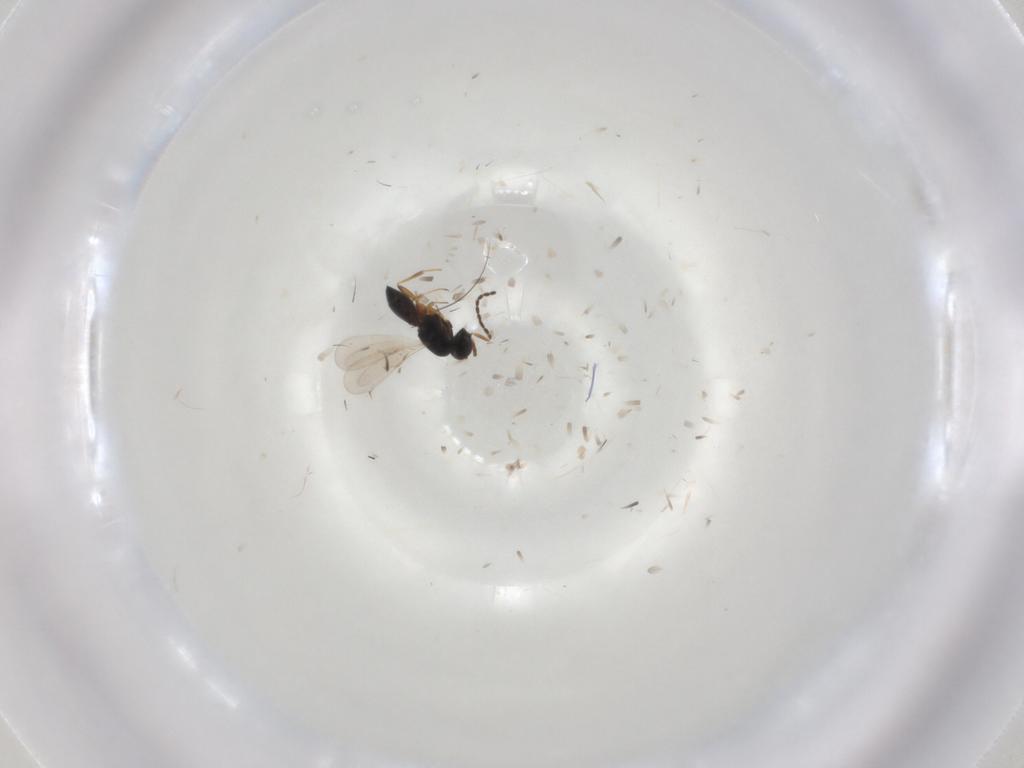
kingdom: Animalia
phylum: Arthropoda
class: Insecta
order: Hymenoptera
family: Scelionidae
